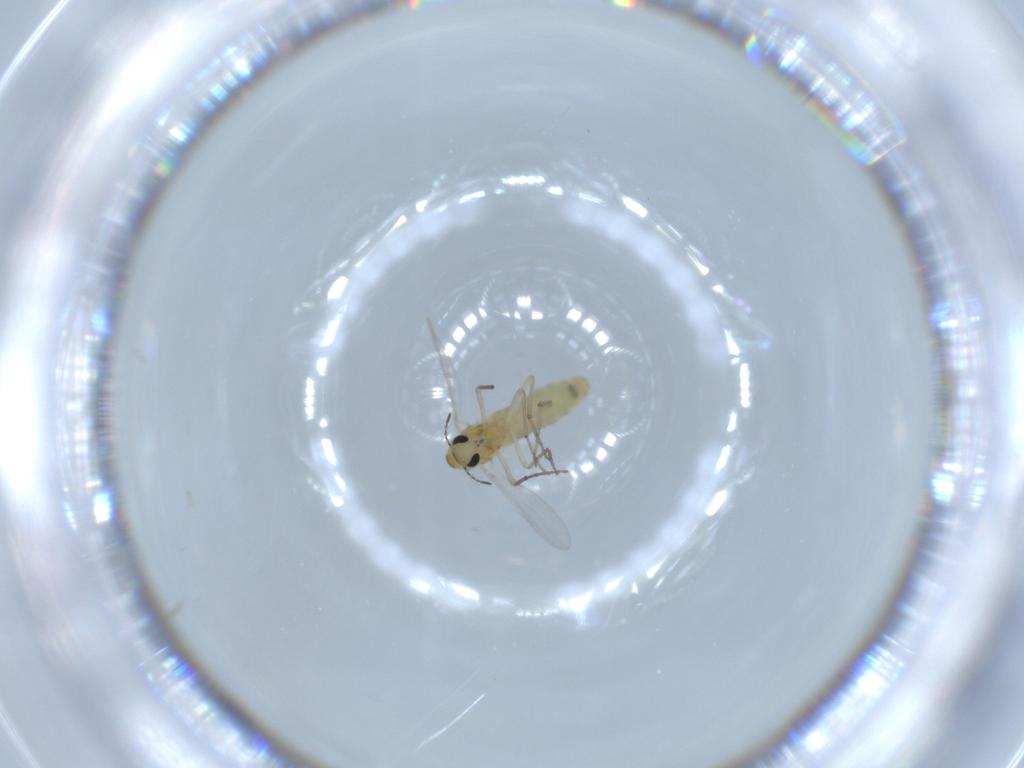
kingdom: Animalia
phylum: Arthropoda
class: Insecta
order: Diptera
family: Chironomidae
